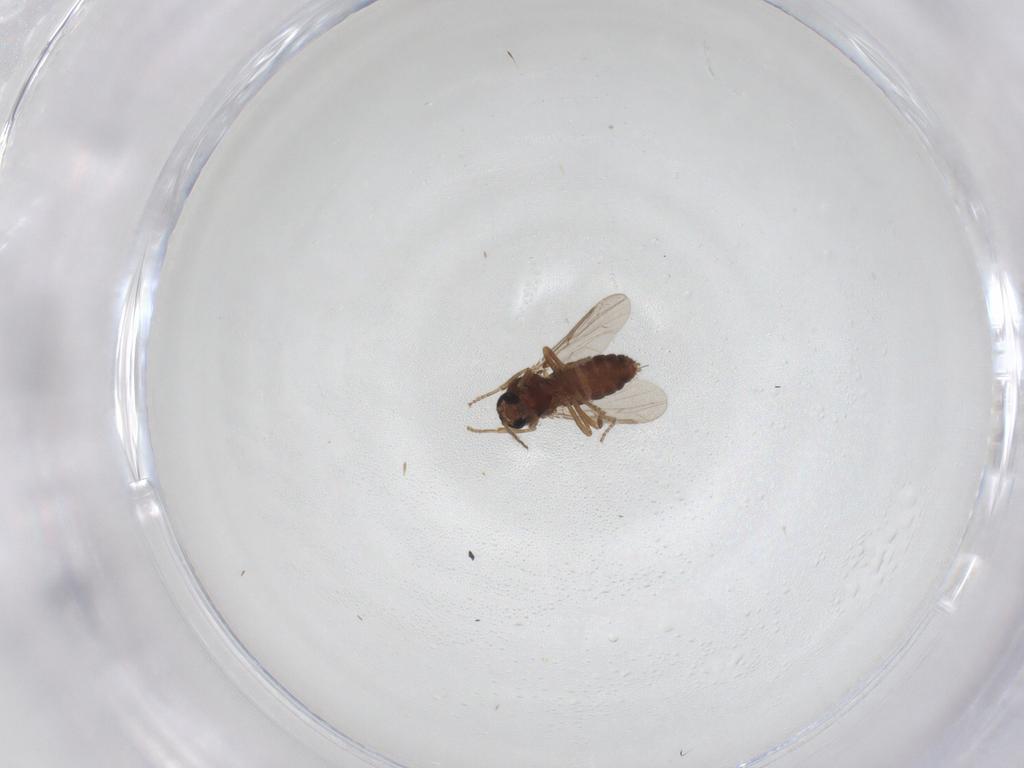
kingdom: Animalia
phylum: Arthropoda
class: Insecta
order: Diptera
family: Ceratopogonidae
